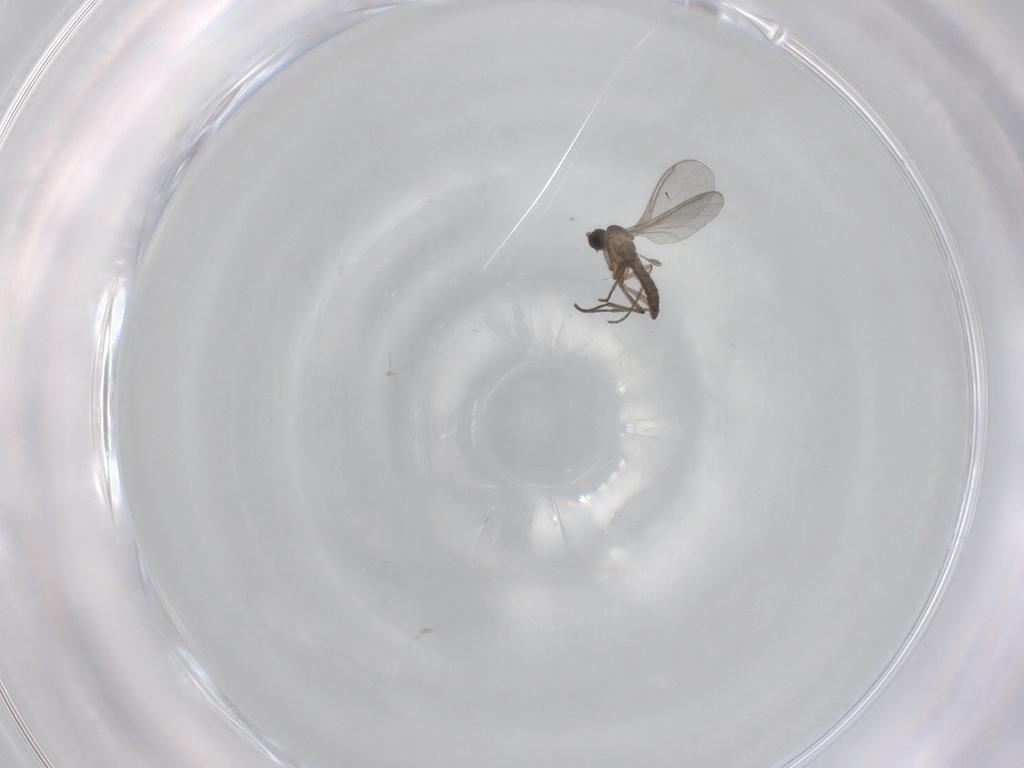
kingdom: Animalia
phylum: Arthropoda
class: Insecta
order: Diptera
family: Sciaridae
